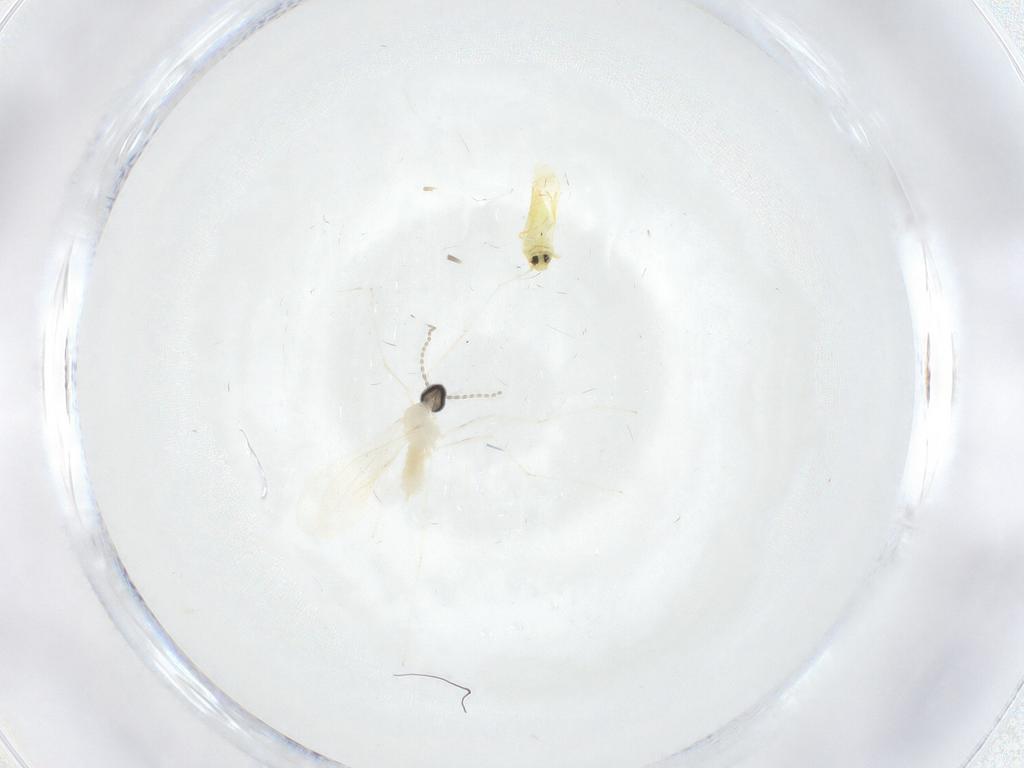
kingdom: Animalia
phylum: Arthropoda
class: Insecta
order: Diptera
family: Cecidomyiidae
